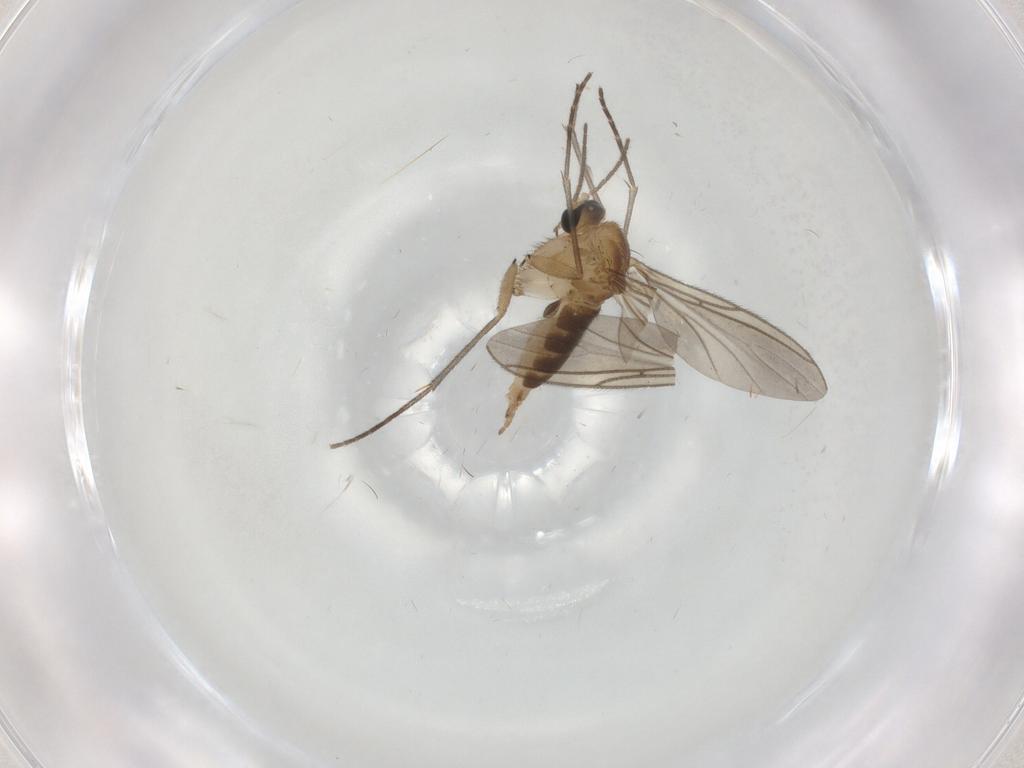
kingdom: Animalia
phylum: Arthropoda
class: Insecta
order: Diptera
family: Sciaridae
